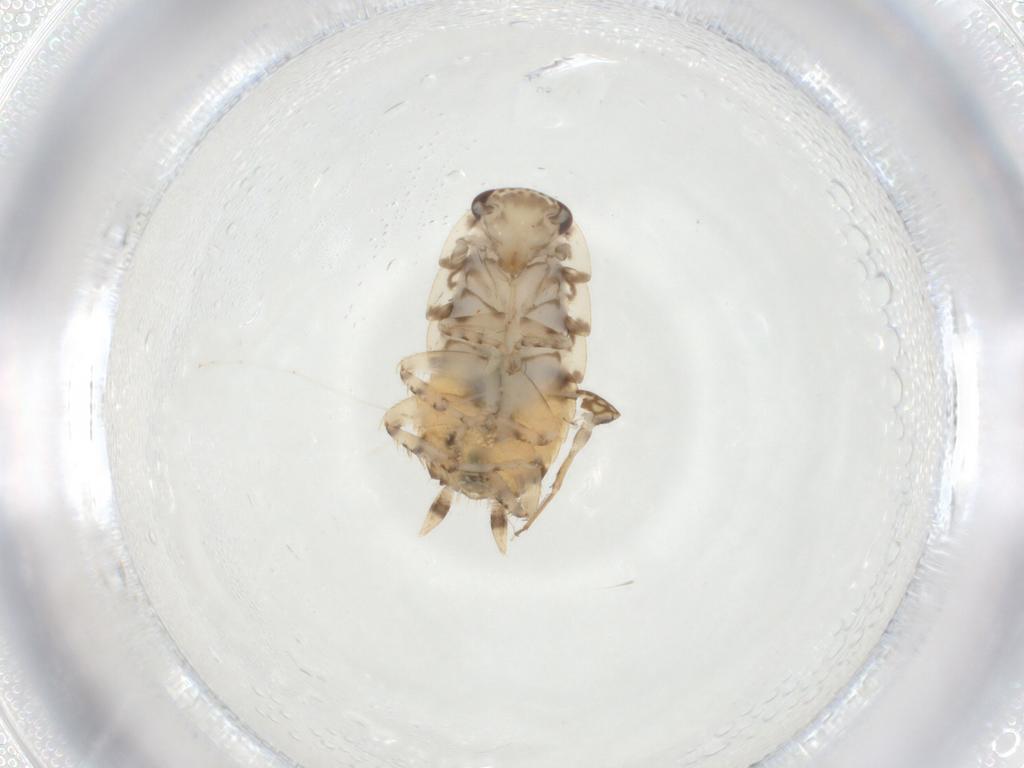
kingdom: Animalia
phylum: Arthropoda
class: Insecta
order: Blattodea
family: Ectobiidae
